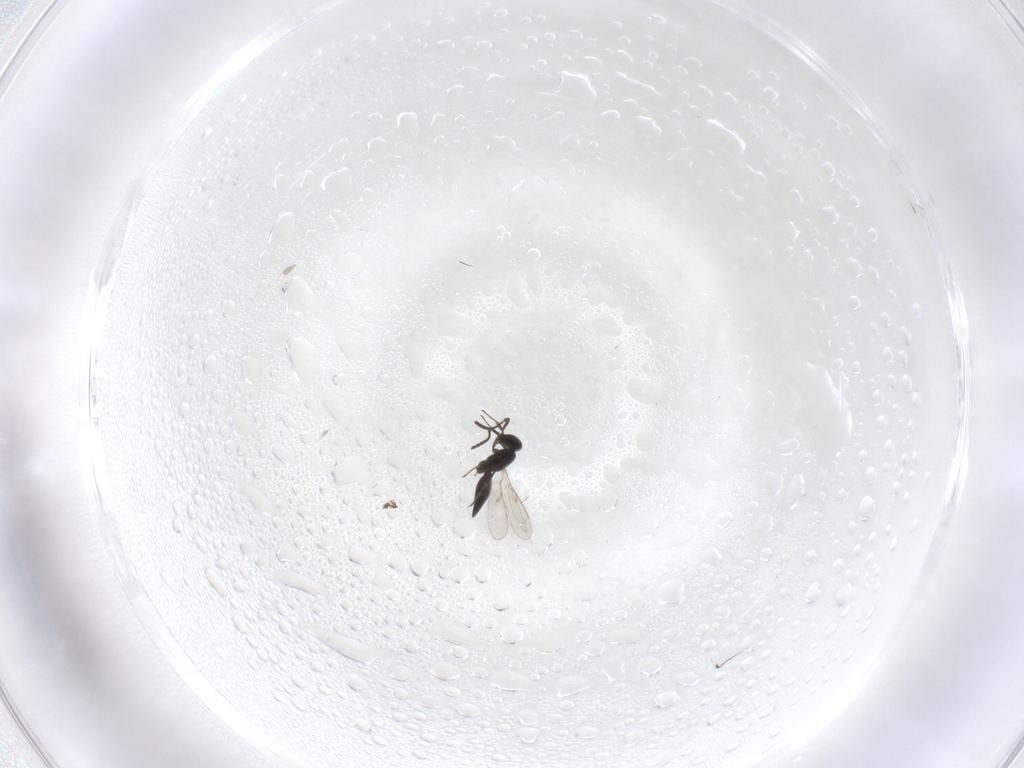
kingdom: Animalia
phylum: Arthropoda
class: Insecta
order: Hymenoptera
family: Scelionidae
